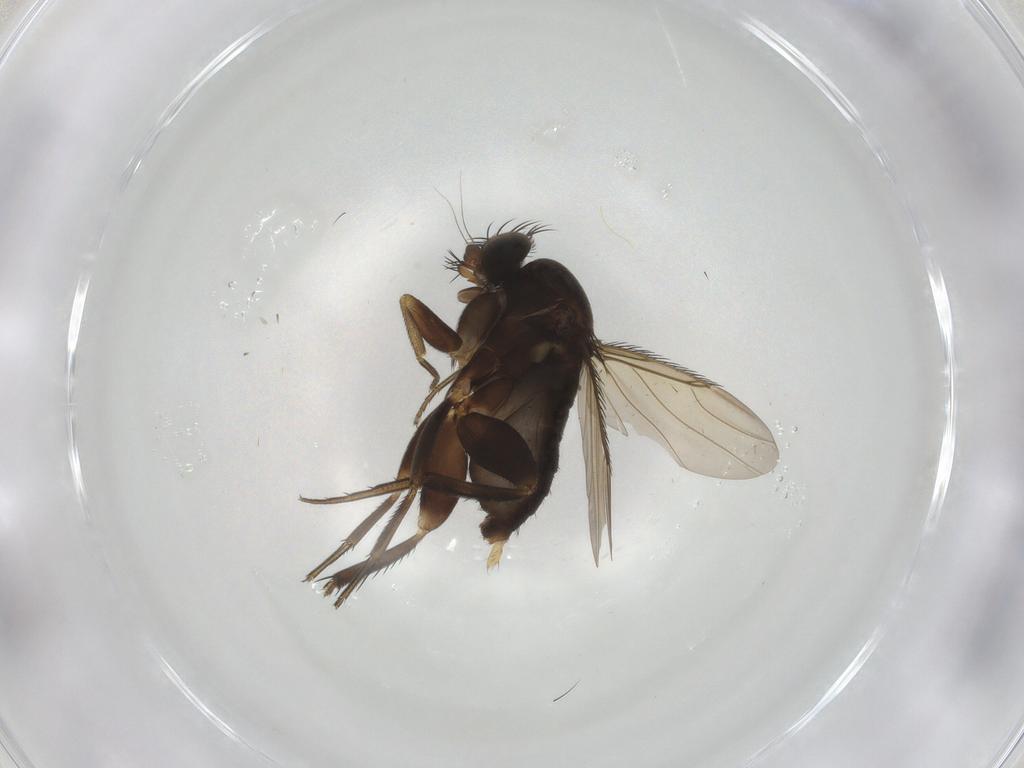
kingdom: Animalia
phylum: Arthropoda
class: Insecta
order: Diptera
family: Phoridae
